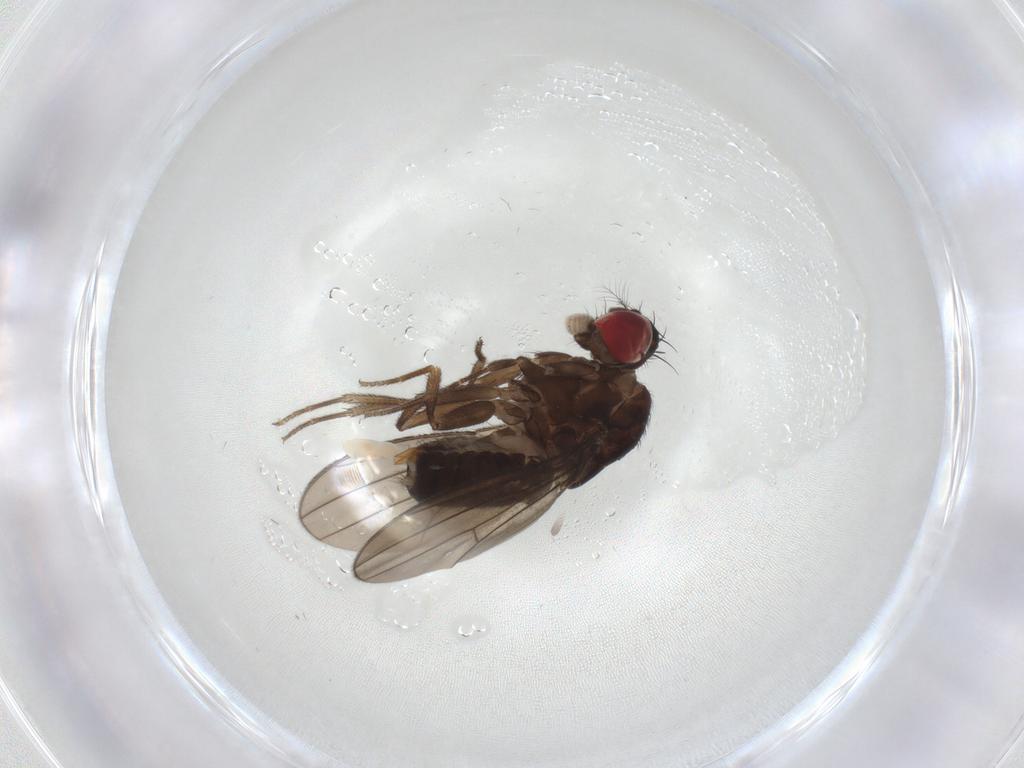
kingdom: Animalia
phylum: Arthropoda
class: Insecta
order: Diptera
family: Drosophilidae
